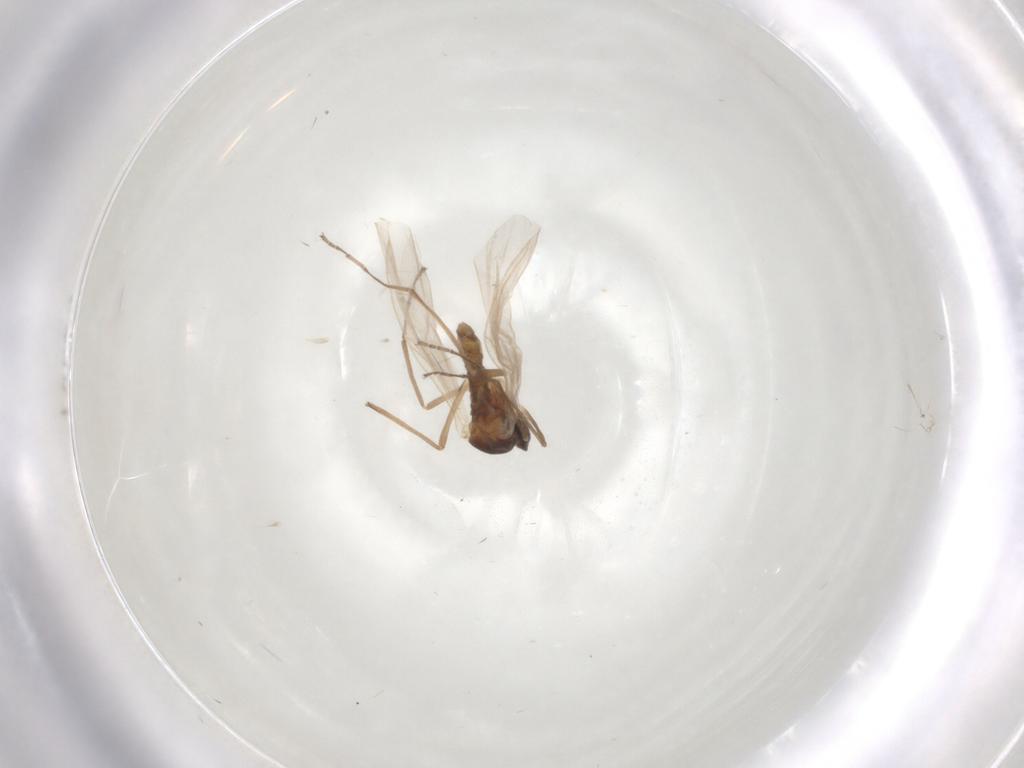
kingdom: Animalia
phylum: Arthropoda
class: Insecta
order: Diptera
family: Cecidomyiidae
